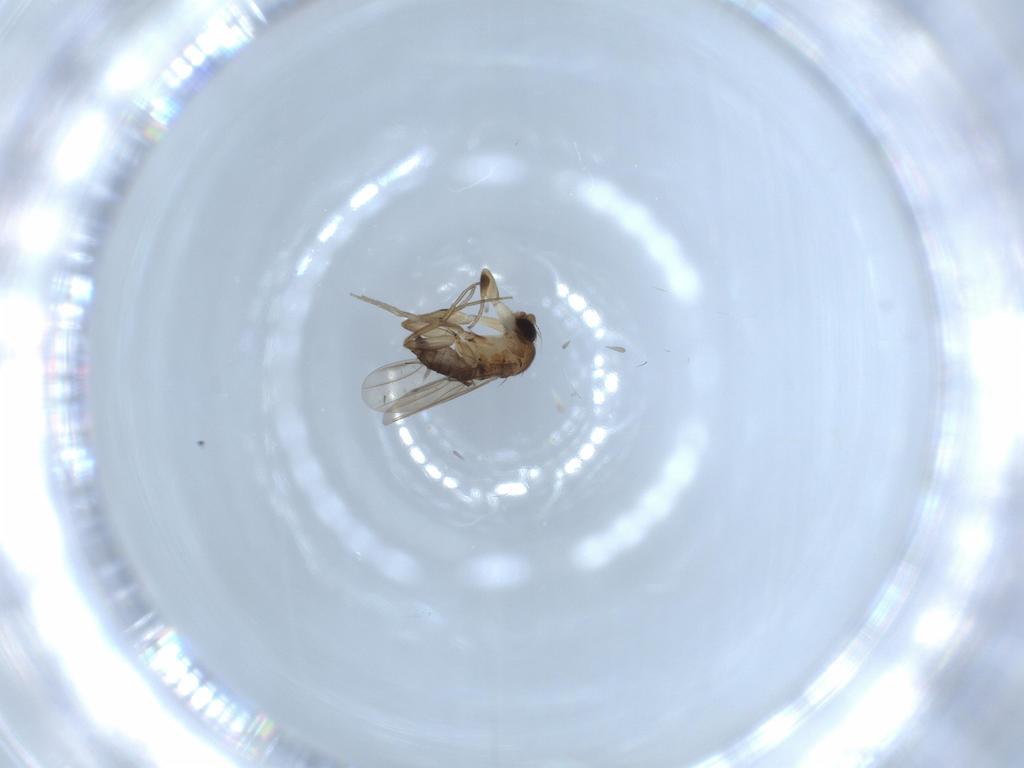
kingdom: Animalia
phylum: Arthropoda
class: Insecta
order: Diptera
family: Phoridae
